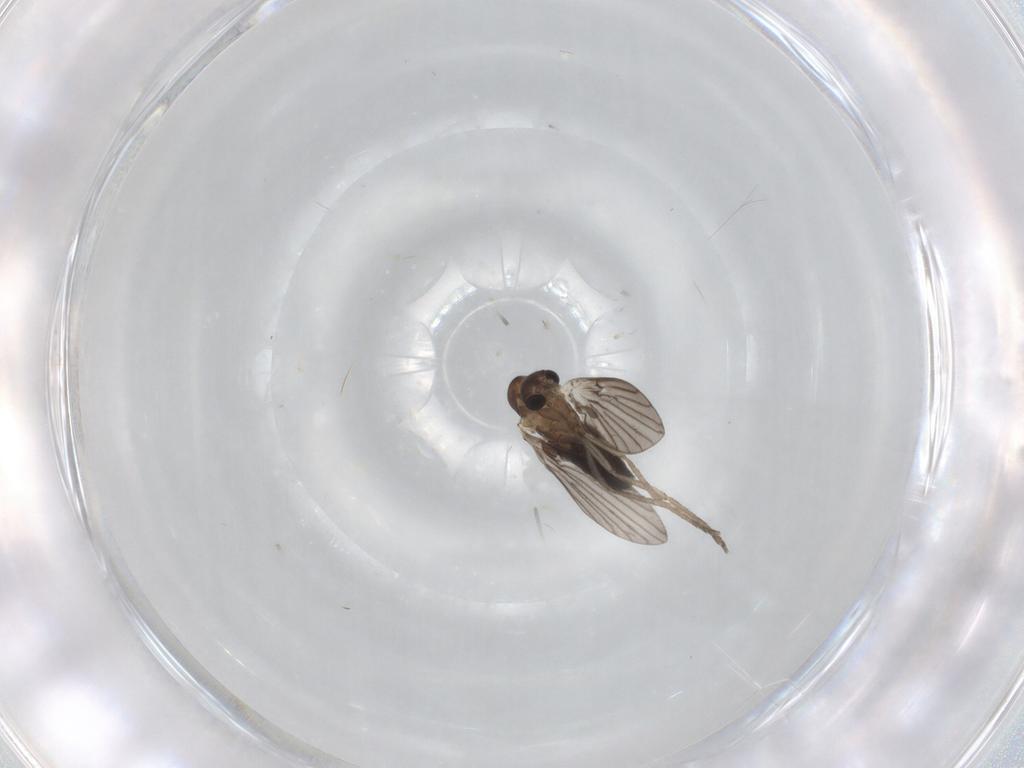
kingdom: Animalia
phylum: Arthropoda
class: Insecta
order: Diptera
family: Psychodidae
